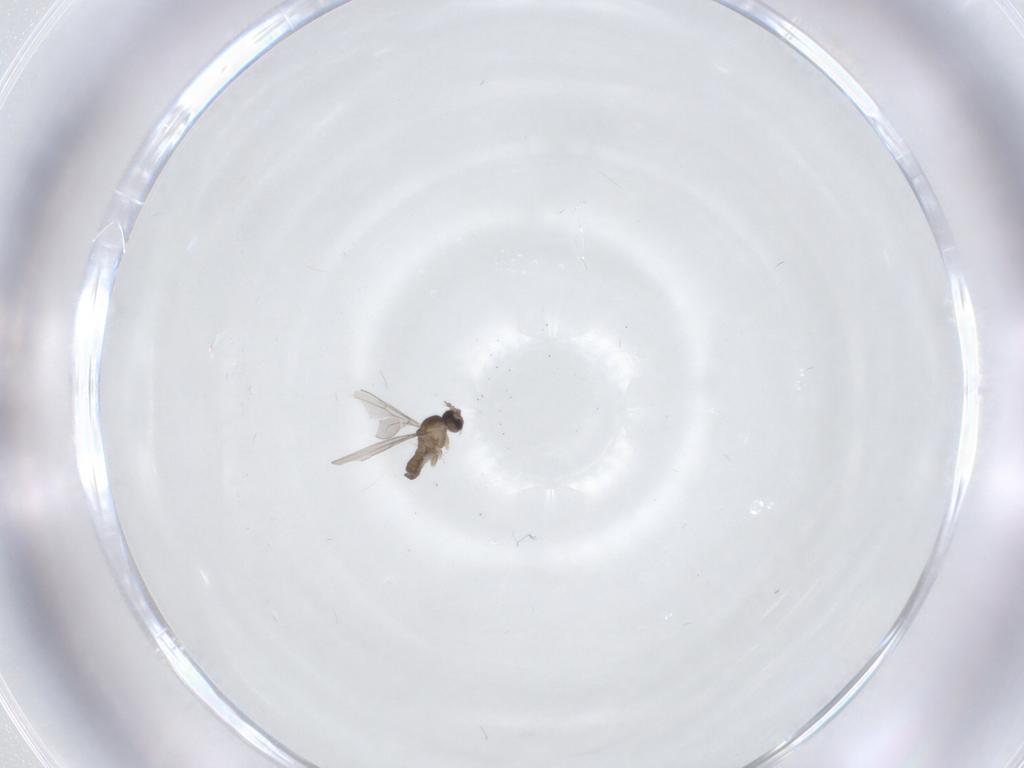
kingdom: Animalia
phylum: Arthropoda
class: Insecta
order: Diptera
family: Cecidomyiidae
